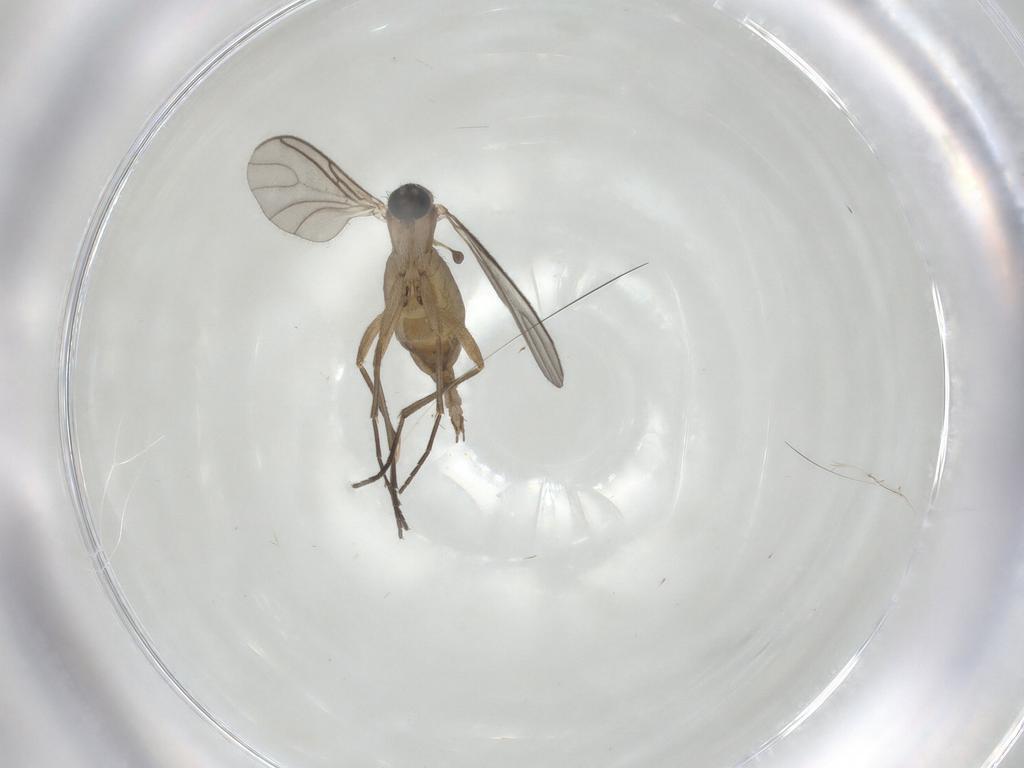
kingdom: Animalia
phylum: Arthropoda
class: Insecta
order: Diptera
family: Sciaridae
